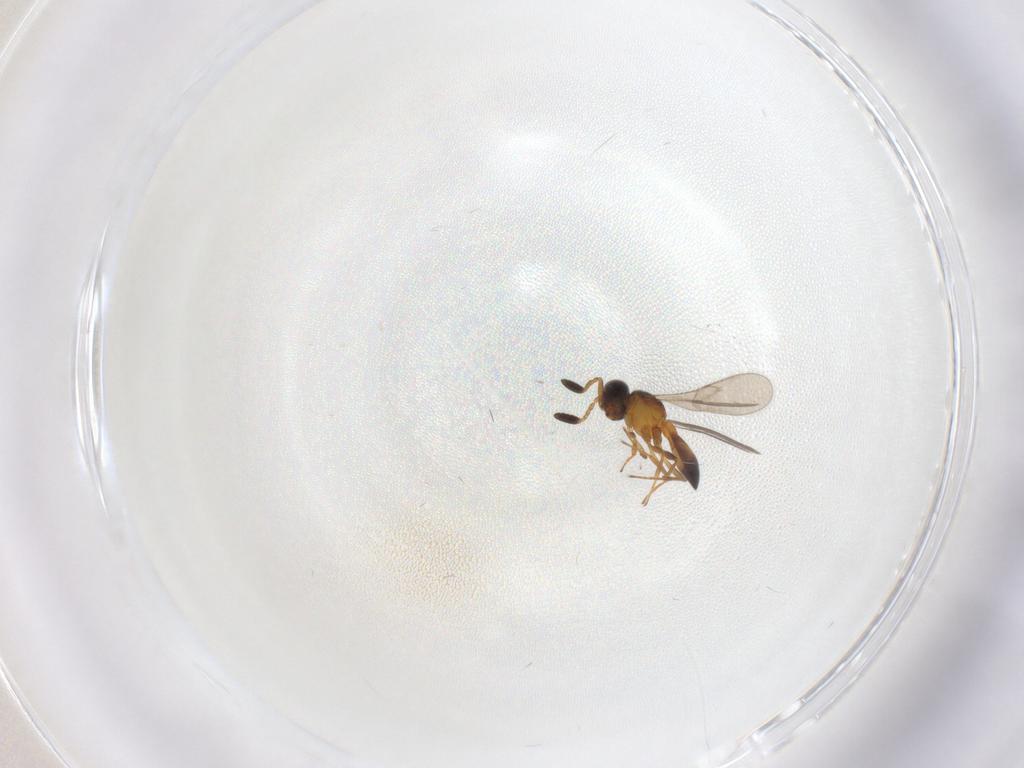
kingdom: Animalia
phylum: Arthropoda
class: Insecta
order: Hymenoptera
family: Scelionidae
